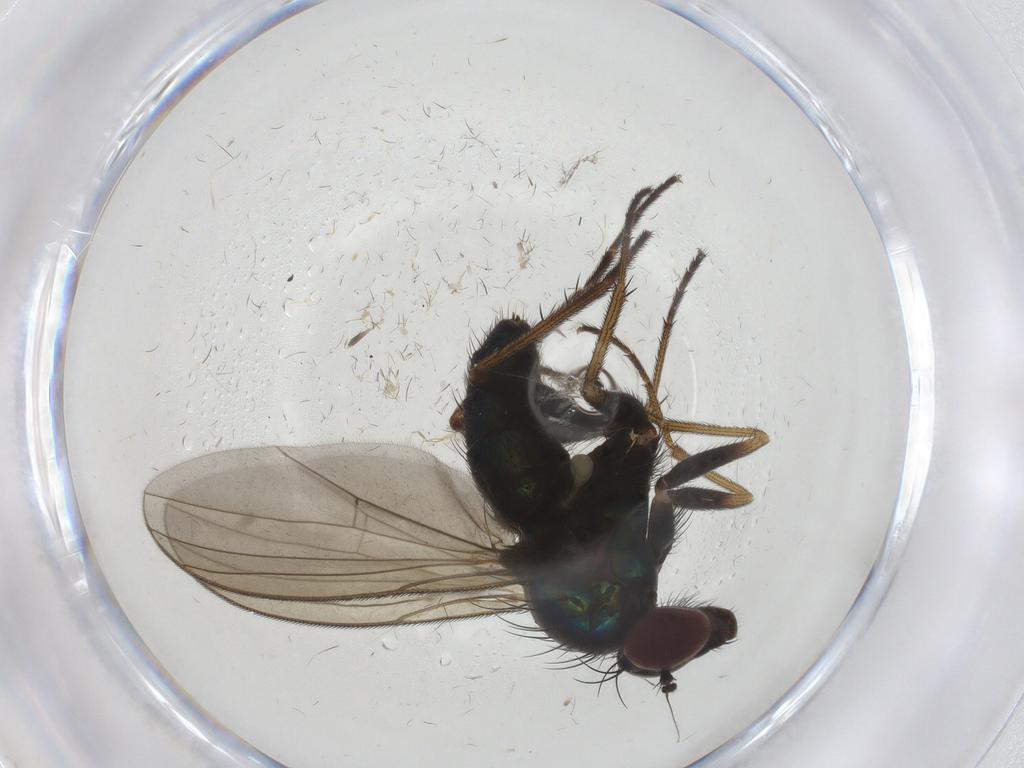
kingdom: Animalia
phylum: Arthropoda
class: Insecta
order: Diptera
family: Dolichopodidae
